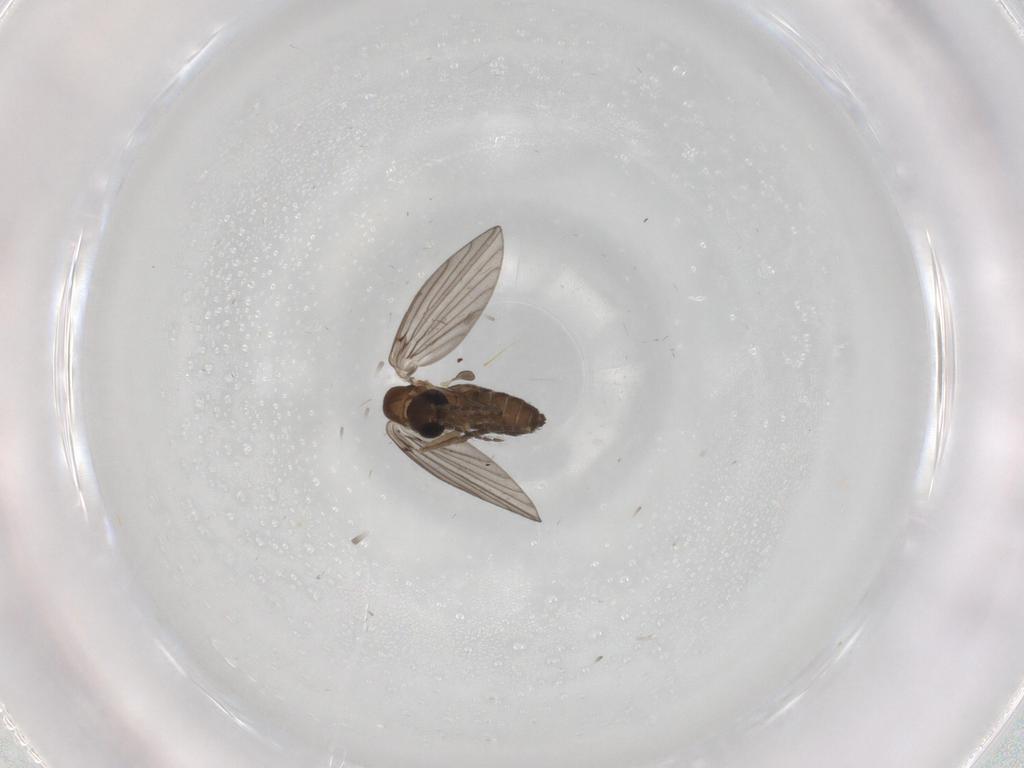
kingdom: Animalia
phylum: Arthropoda
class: Insecta
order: Diptera
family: Psychodidae
